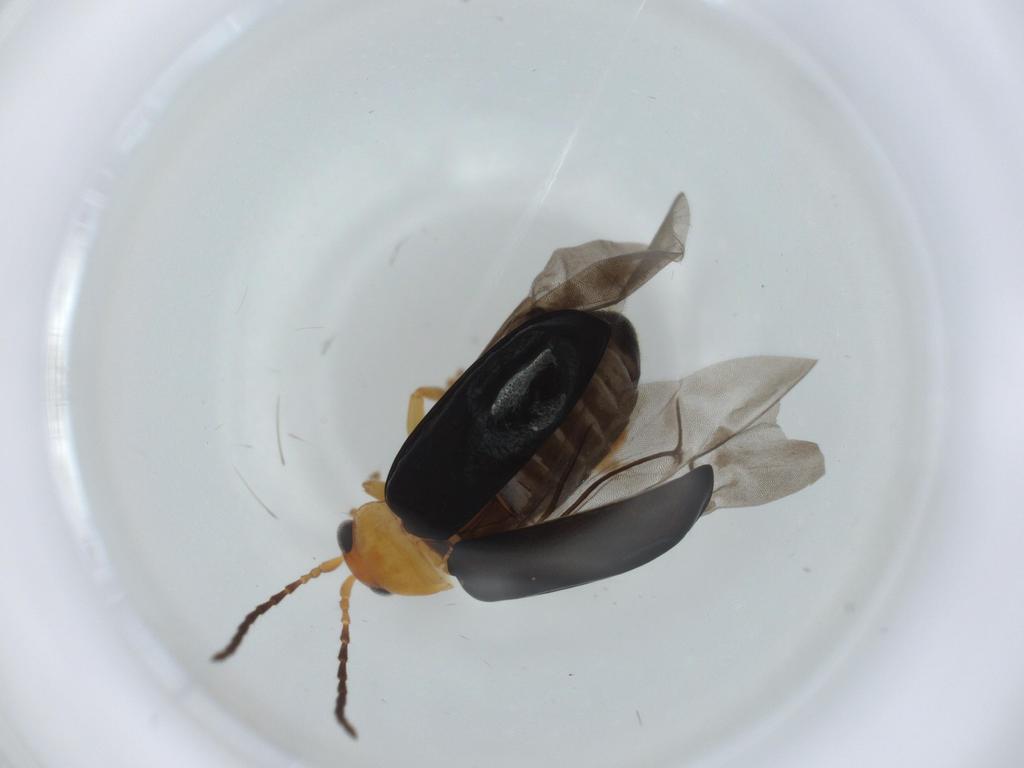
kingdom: Animalia
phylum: Arthropoda
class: Insecta
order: Coleoptera
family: Chrysomelidae
